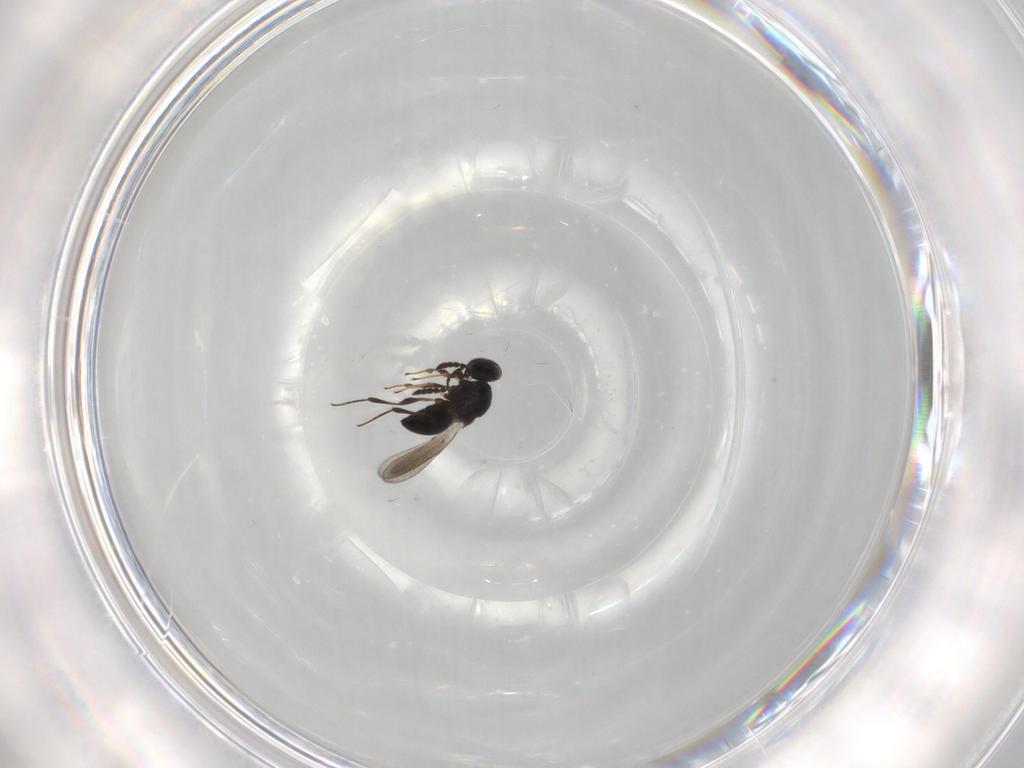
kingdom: Animalia
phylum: Arthropoda
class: Insecta
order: Hymenoptera
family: Platygastridae
